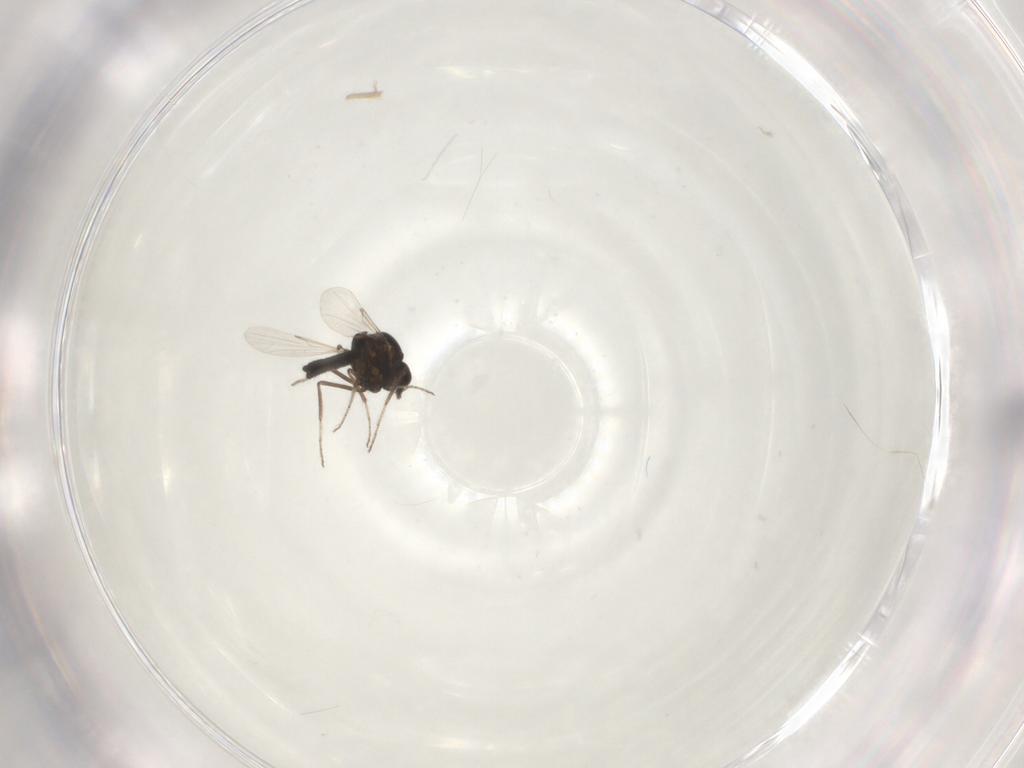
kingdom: Animalia
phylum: Arthropoda
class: Insecta
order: Diptera
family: Ceratopogonidae
